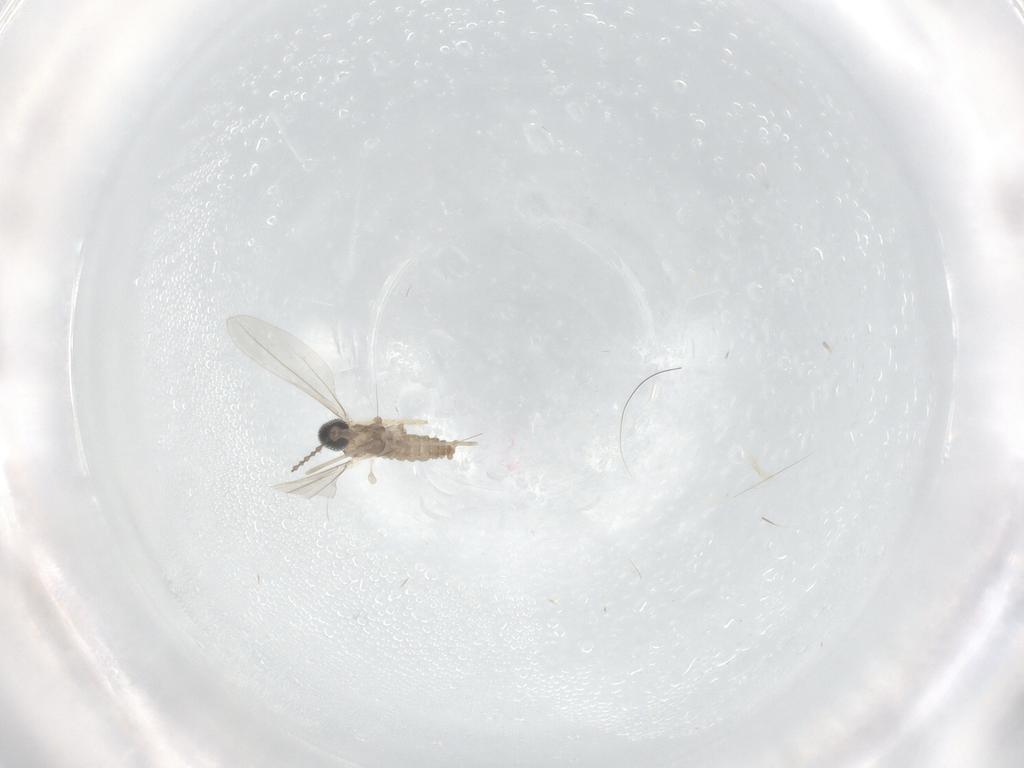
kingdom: Animalia
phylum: Arthropoda
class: Insecta
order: Diptera
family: Cecidomyiidae
